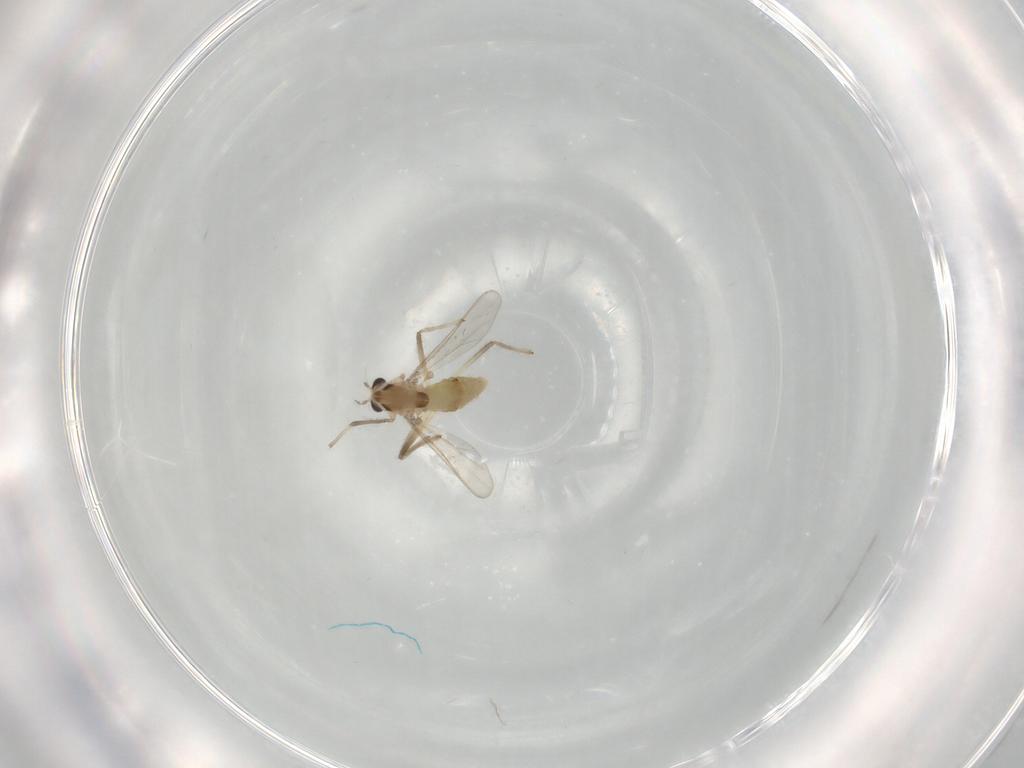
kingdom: Animalia
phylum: Arthropoda
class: Insecta
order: Diptera
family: Chironomidae
